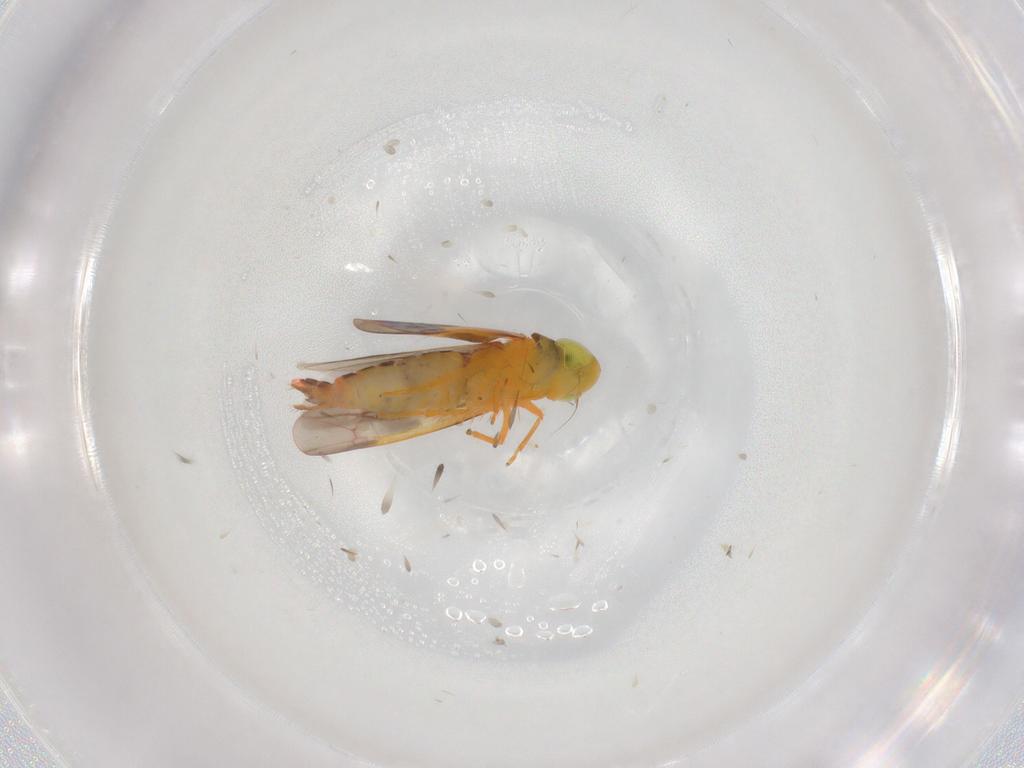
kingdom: Animalia
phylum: Arthropoda
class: Insecta
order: Hemiptera
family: Cicadellidae
